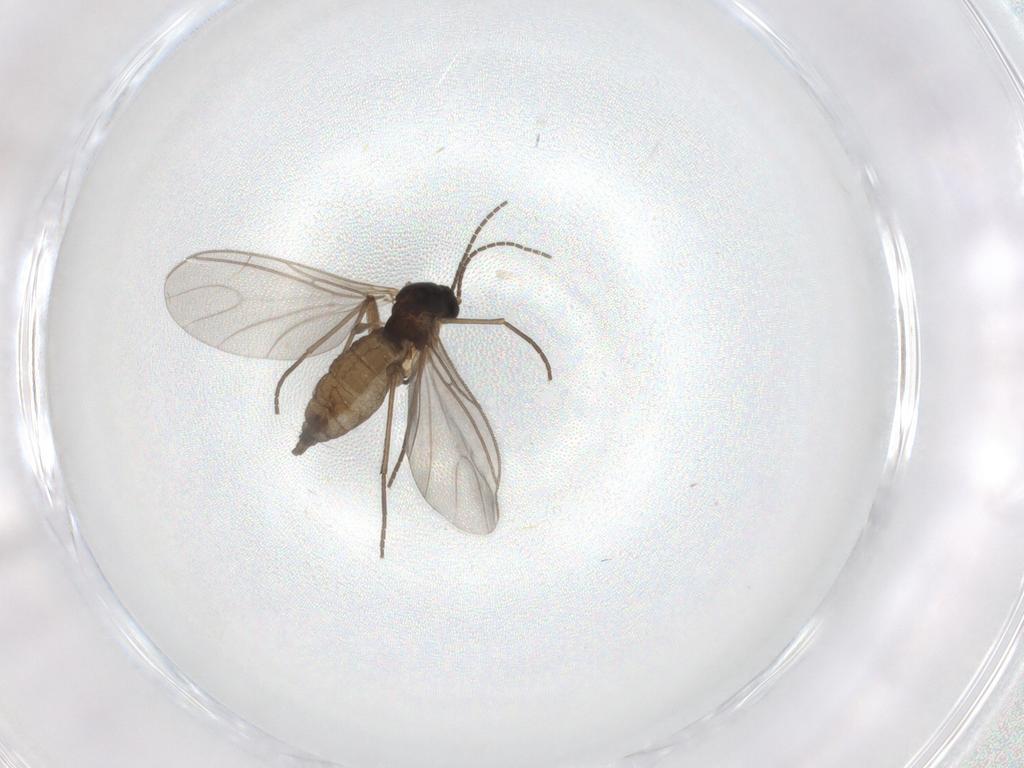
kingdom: Animalia
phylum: Arthropoda
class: Insecta
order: Diptera
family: Sciaridae
